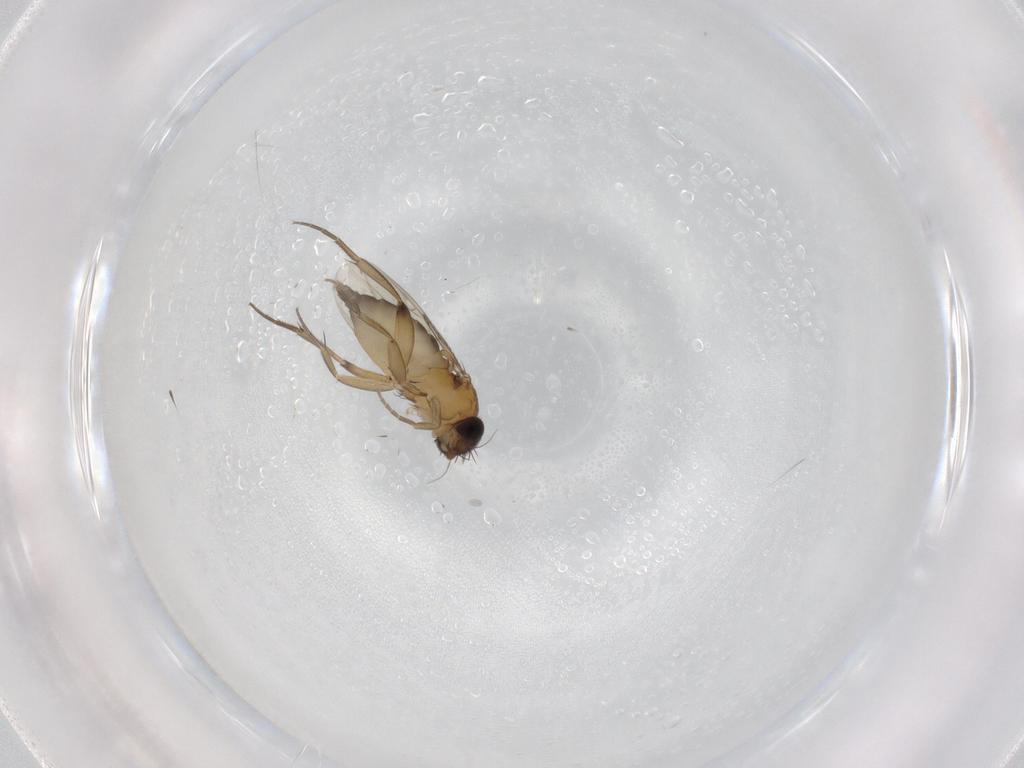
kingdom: Animalia
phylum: Arthropoda
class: Insecta
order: Diptera
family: Phoridae
